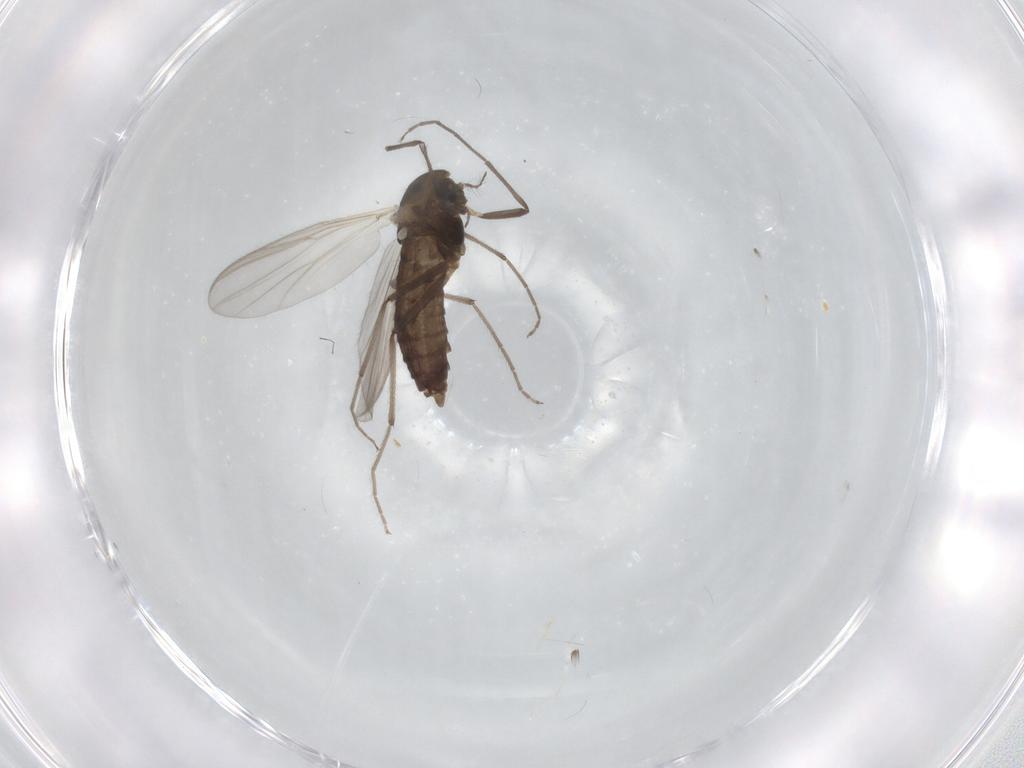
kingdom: Animalia
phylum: Arthropoda
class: Insecta
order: Diptera
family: Chironomidae
